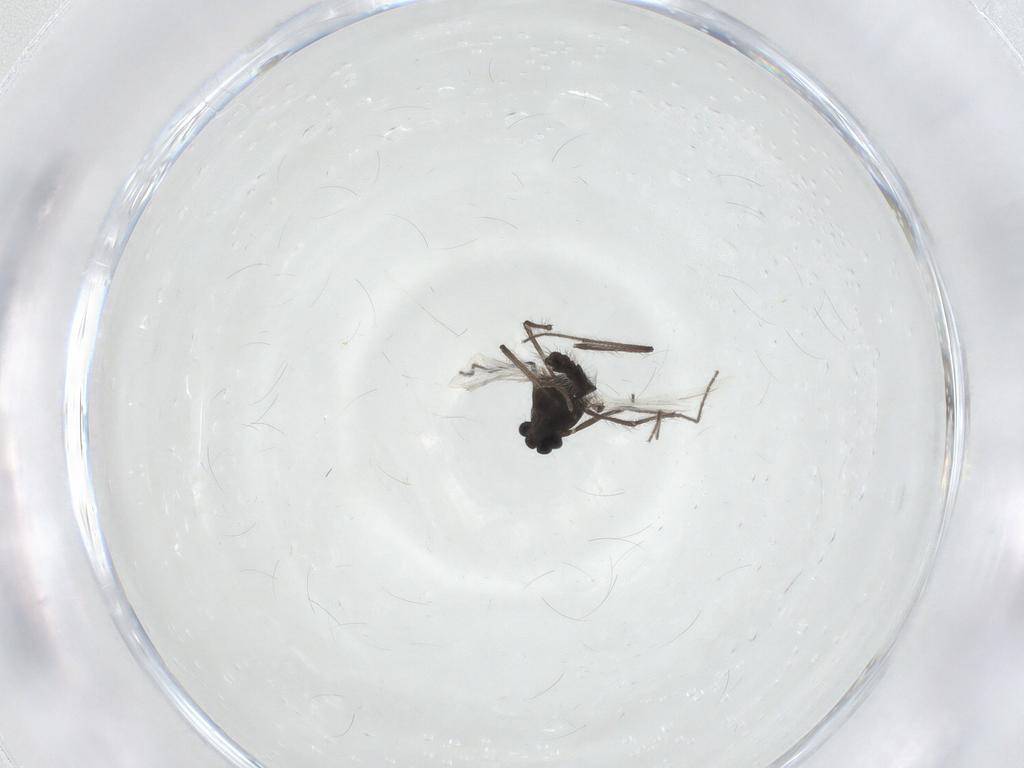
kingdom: Animalia
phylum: Arthropoda
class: Insecta
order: Diptera
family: Chironomidae
